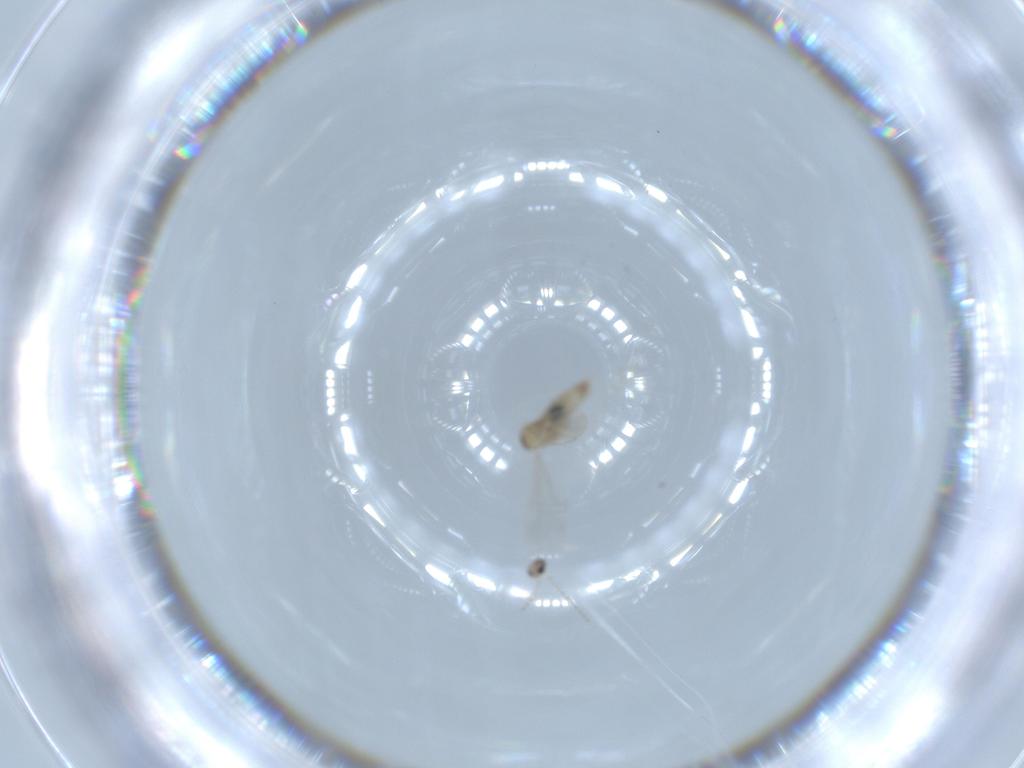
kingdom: Animalia
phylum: Arthropoda
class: Insecta
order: Diptera
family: Cecidomyiidae
